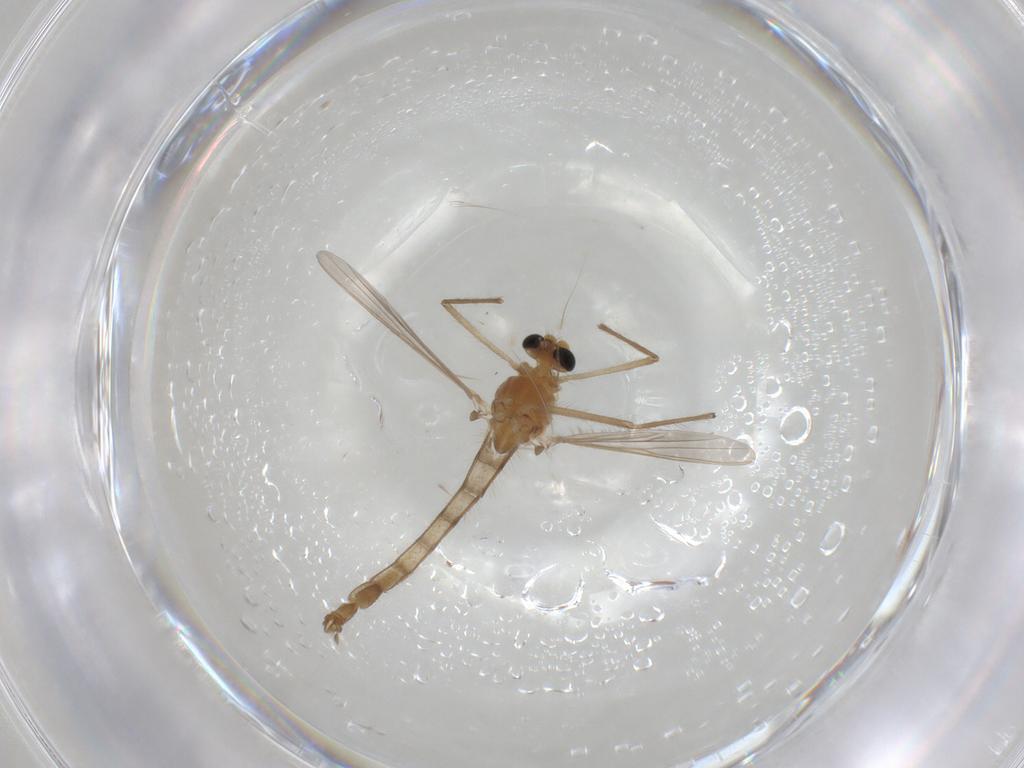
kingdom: Animalia
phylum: Arthropoda
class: Insecta
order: Diptera
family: Chironomidae
